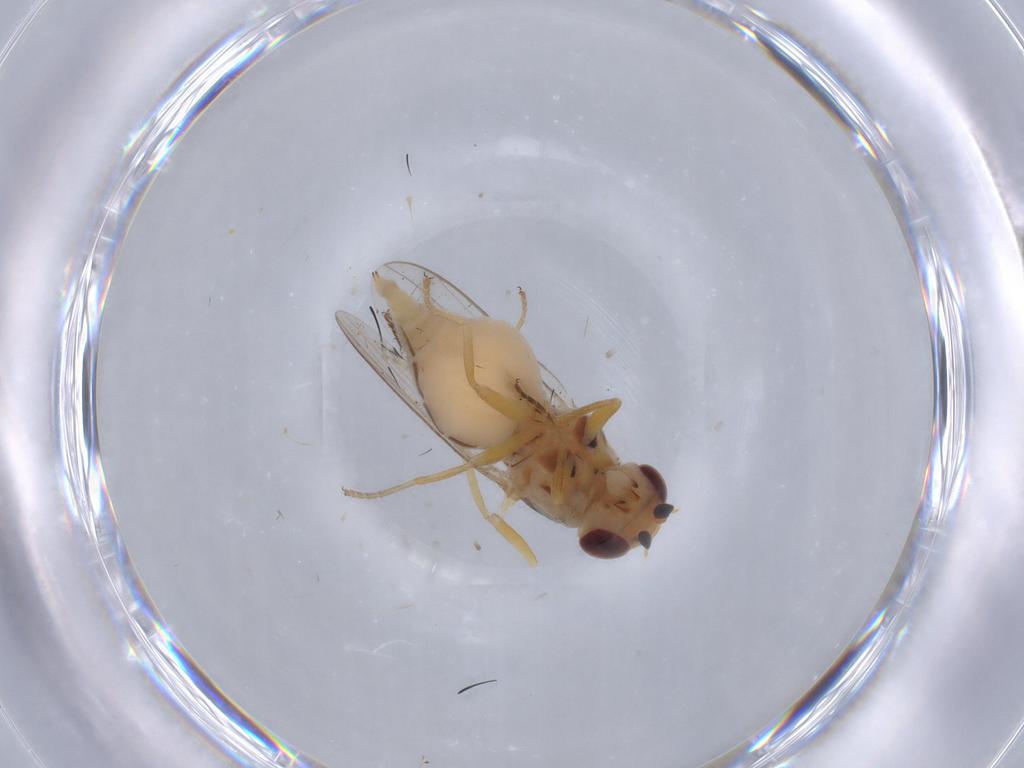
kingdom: Animalia
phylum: Arthropoda
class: Insecta
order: Diptera
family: Chloropidae
